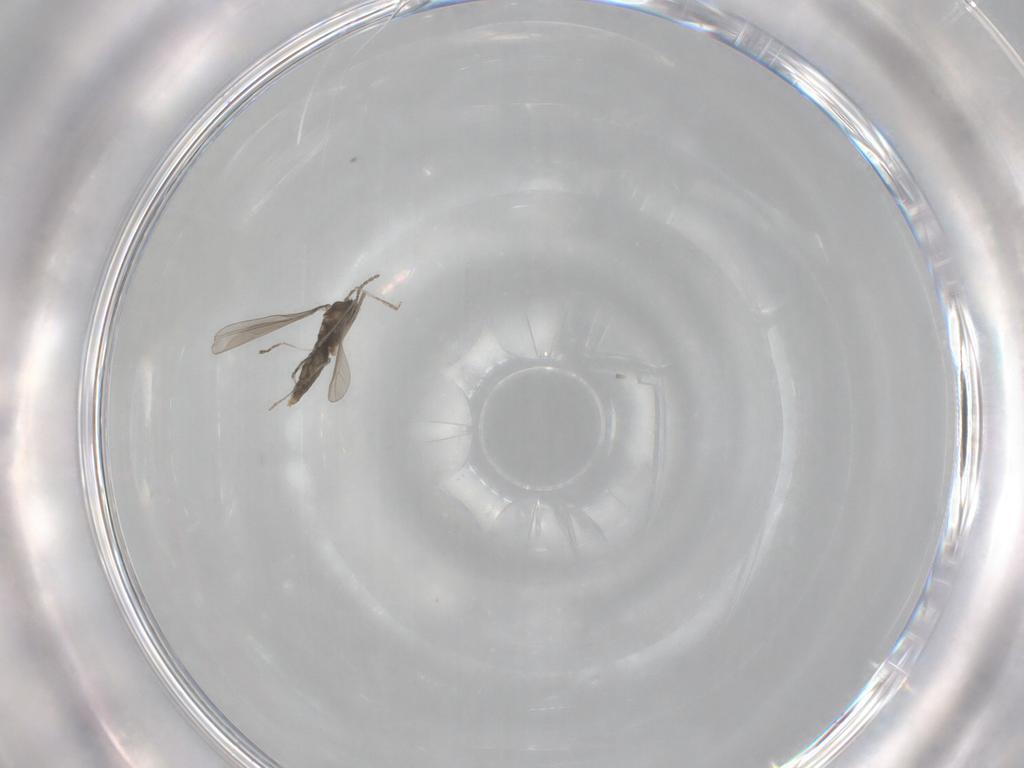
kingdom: Animalia
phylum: Arthropoda
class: Insecta
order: Diptera
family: Cecidomyiidae
